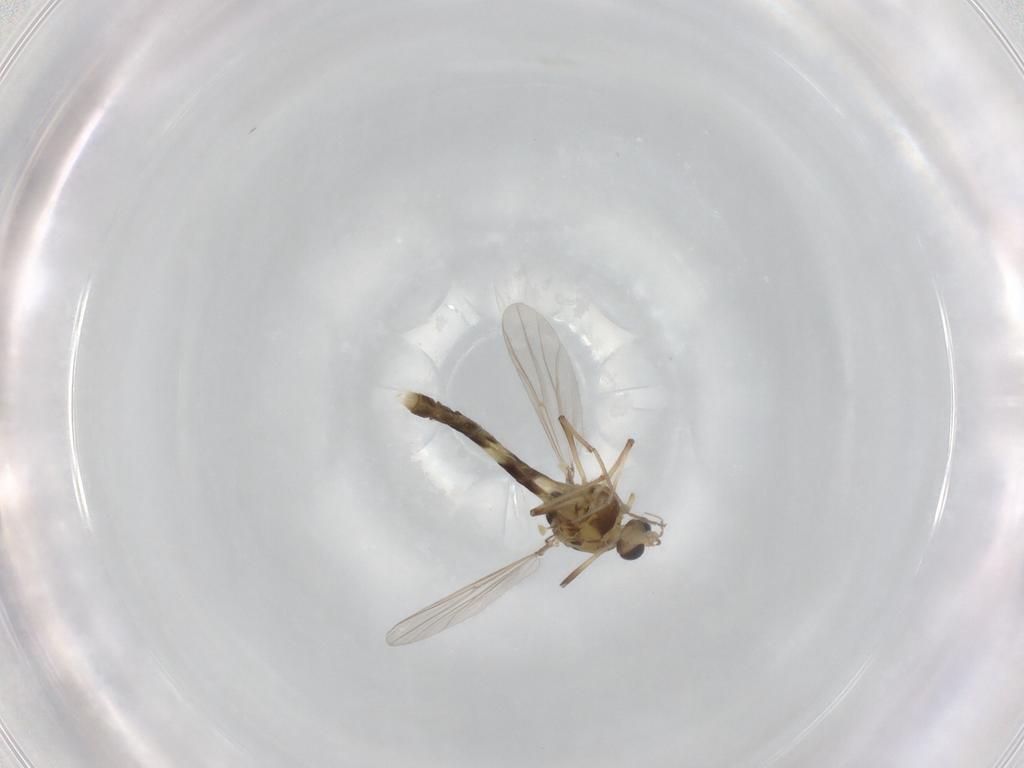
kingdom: Animalia
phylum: Arthropoda
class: Insecta
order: Diptera
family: Chironomidae
